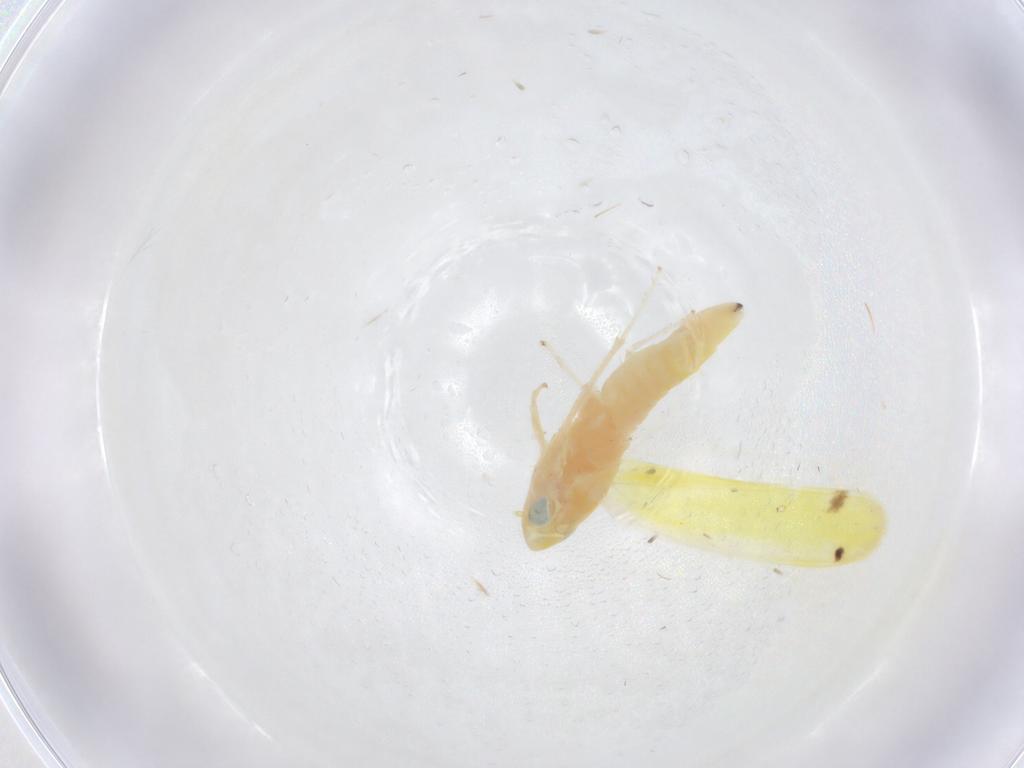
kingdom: Animalia
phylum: Arthropoda
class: Insecta
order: Hemiptera
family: Cicadellidae
